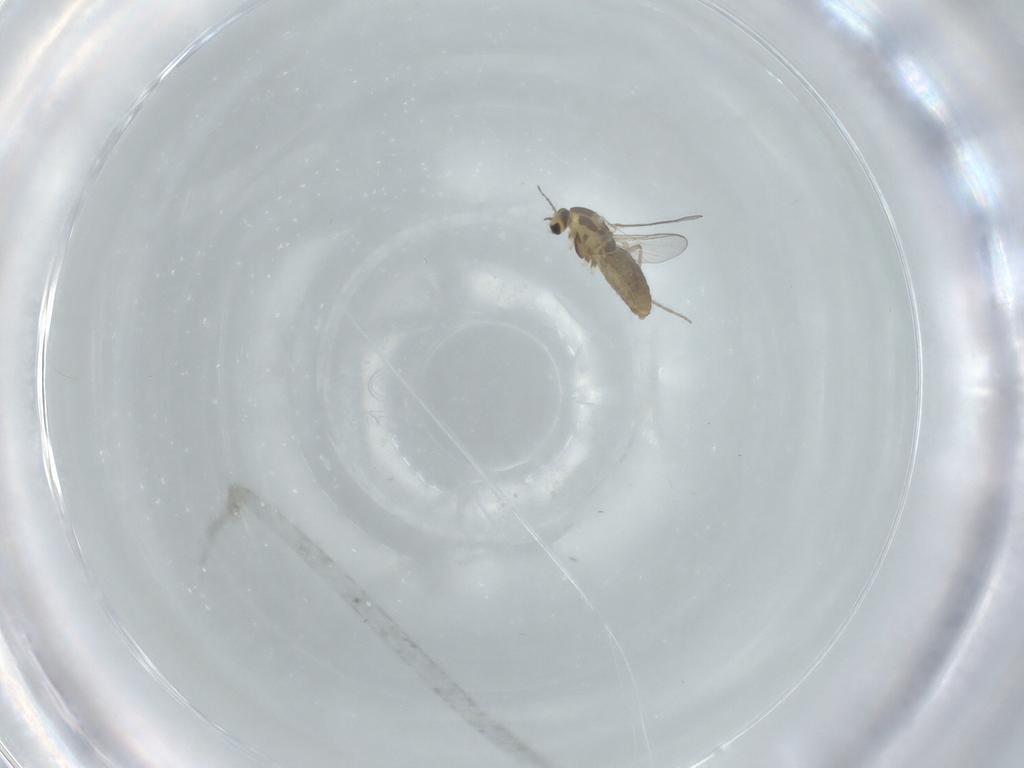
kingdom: Animalia
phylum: Arthropoda
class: Insecta
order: Diptera
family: Chironomidae
